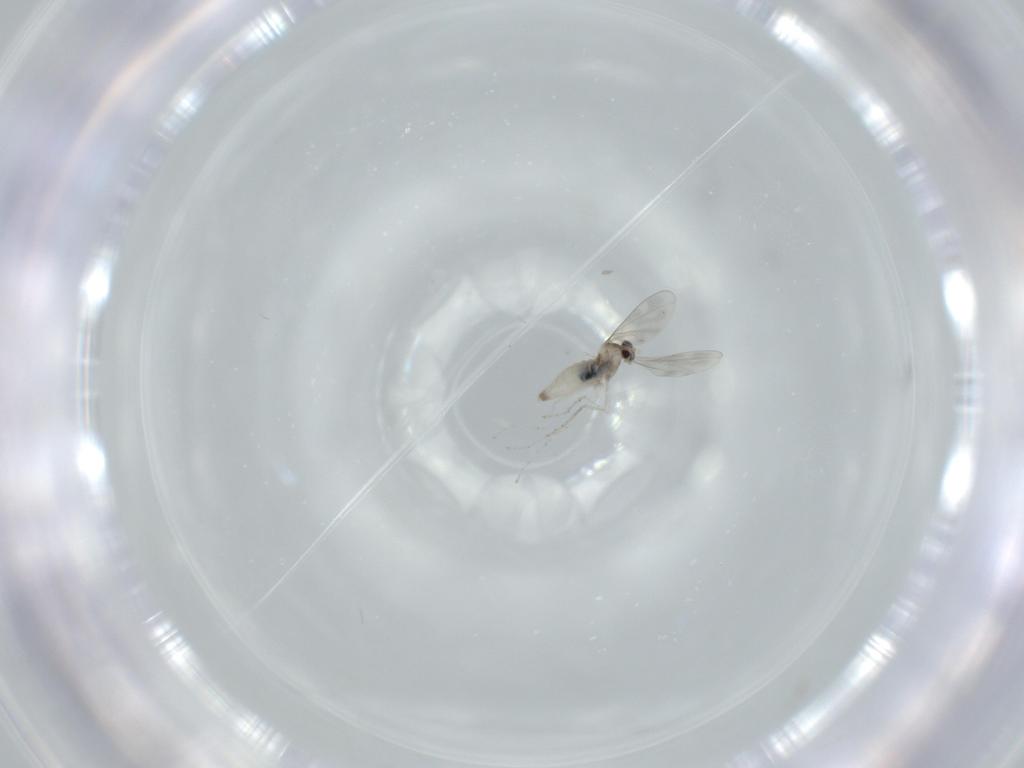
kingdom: Animalia
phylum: Arthropoda
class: Insecta
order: Diptera
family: Cecidomyiidae
